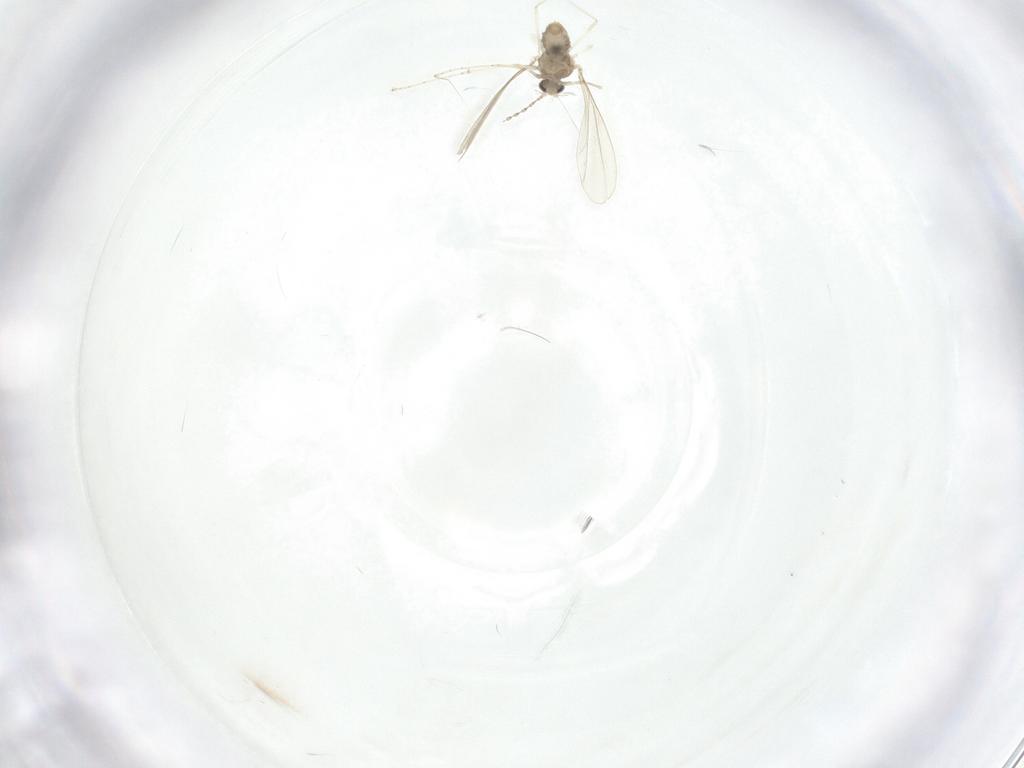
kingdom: Animalia
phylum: Arthropoda
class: Insecta
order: Diptera
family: Cecidomyiidae
